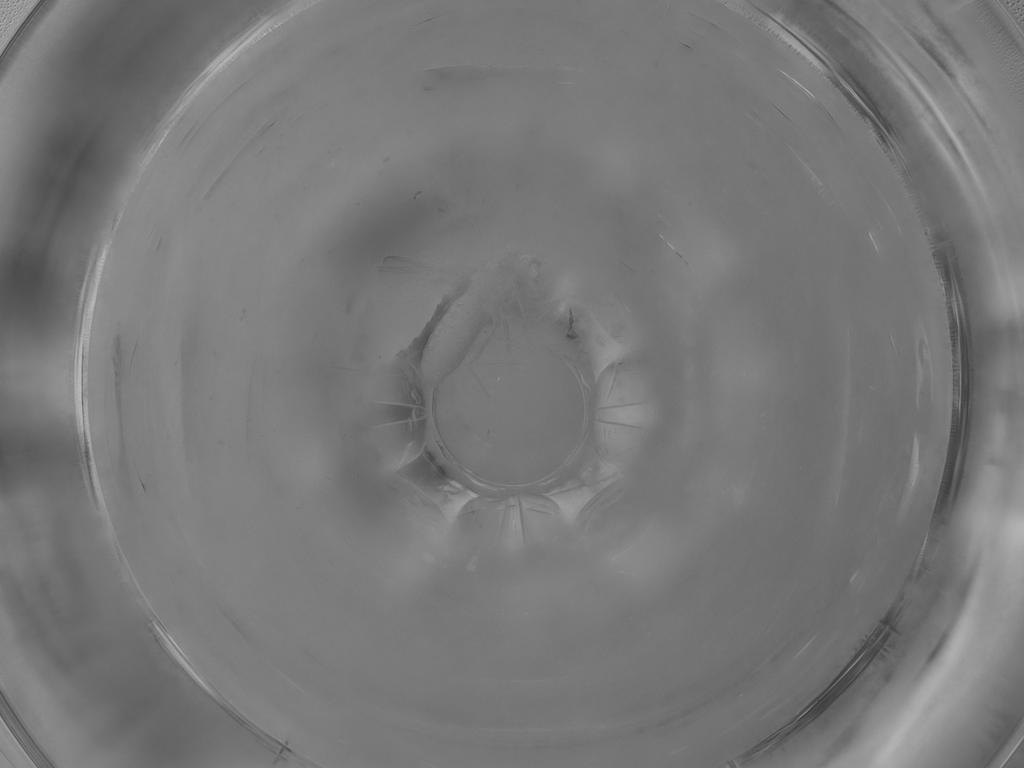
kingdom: Animalia
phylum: Arthropoda
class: Insecta
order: Diptera
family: Chironomidae
